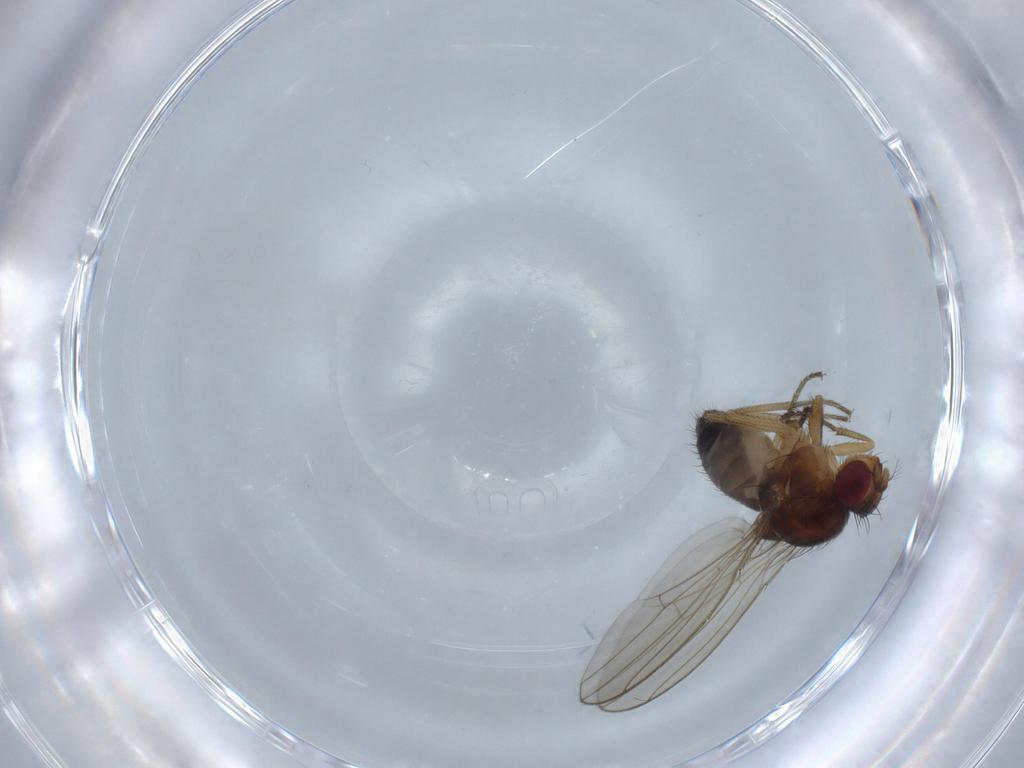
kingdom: Animalia
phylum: Arthropoda
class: Insecta
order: Diptera
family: Drosophilidae
